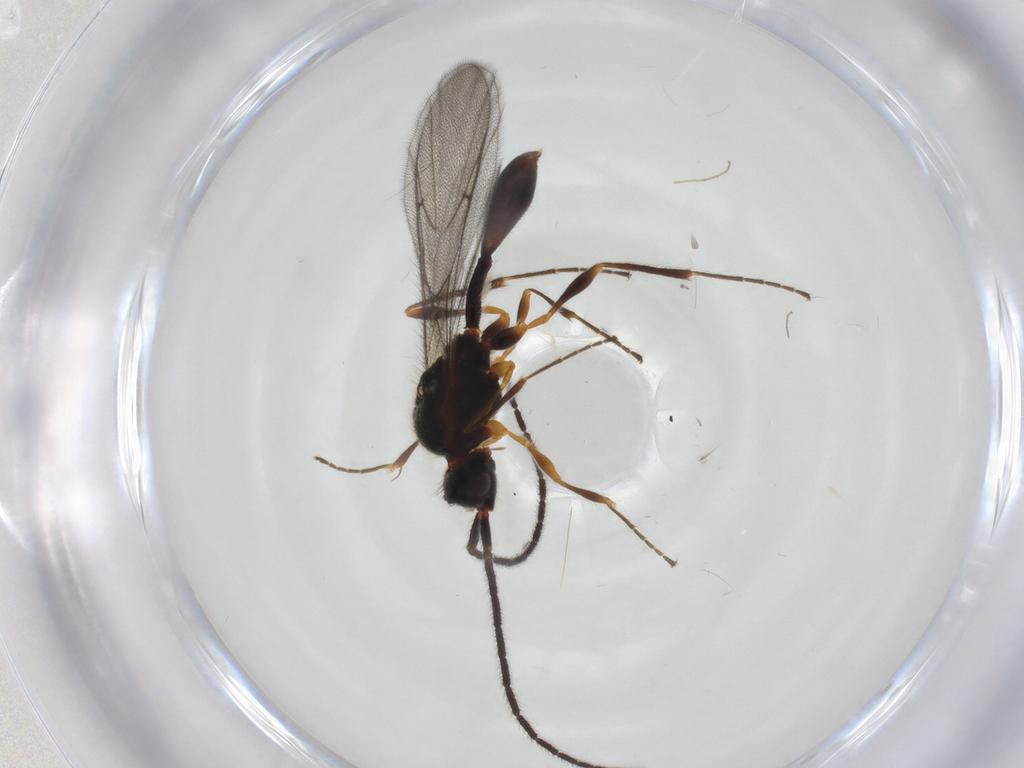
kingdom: Animalia
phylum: Arthropoda
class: Insecta
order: Hymenoptera
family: Diapriidae
